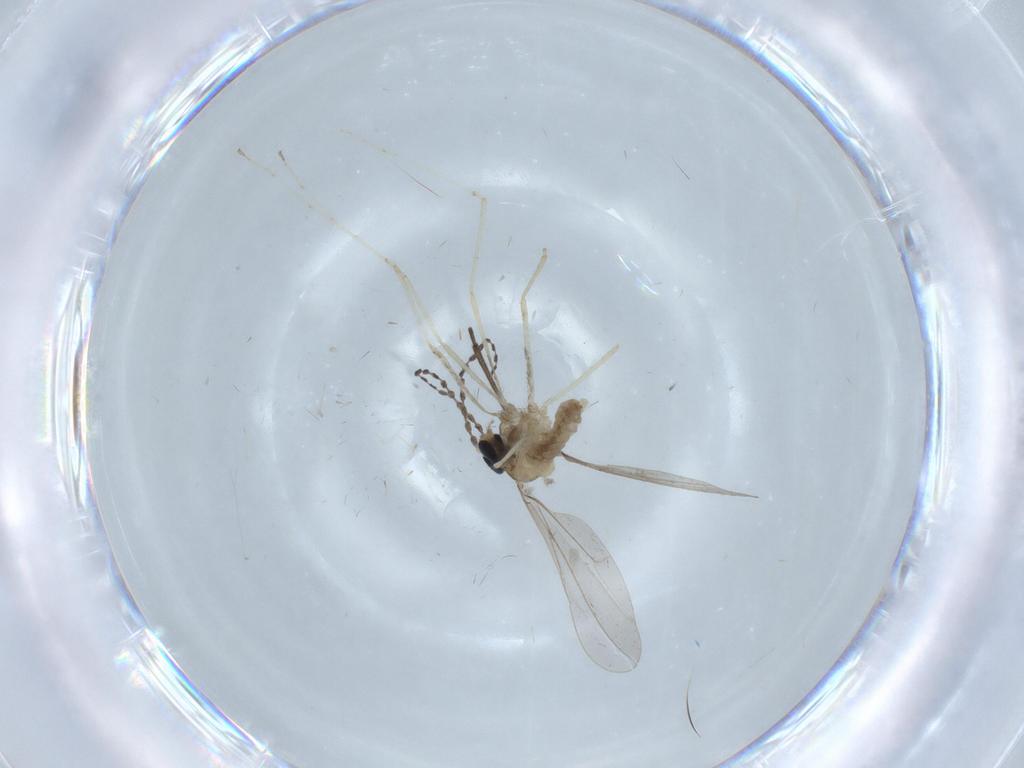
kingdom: Animalia
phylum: Arthropoda
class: Insecta
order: Diptera
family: Cecidomyiidae
